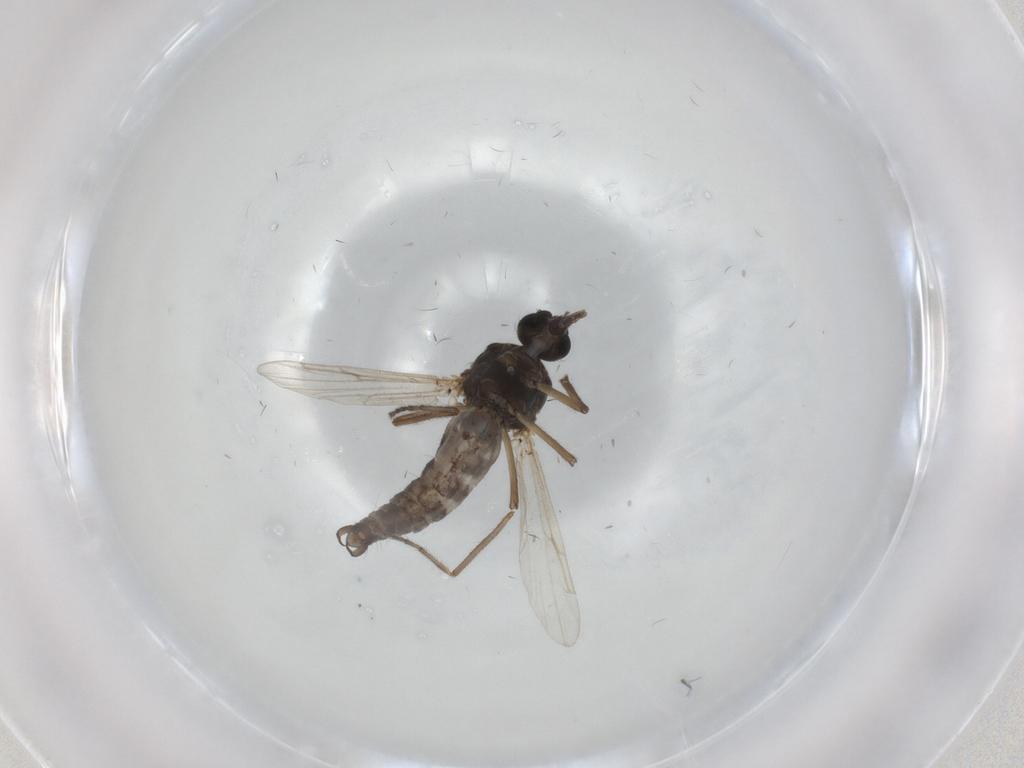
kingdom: Animalia
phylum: Arthropoda
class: Insecta
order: Diptera
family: Ceratopogonidae
